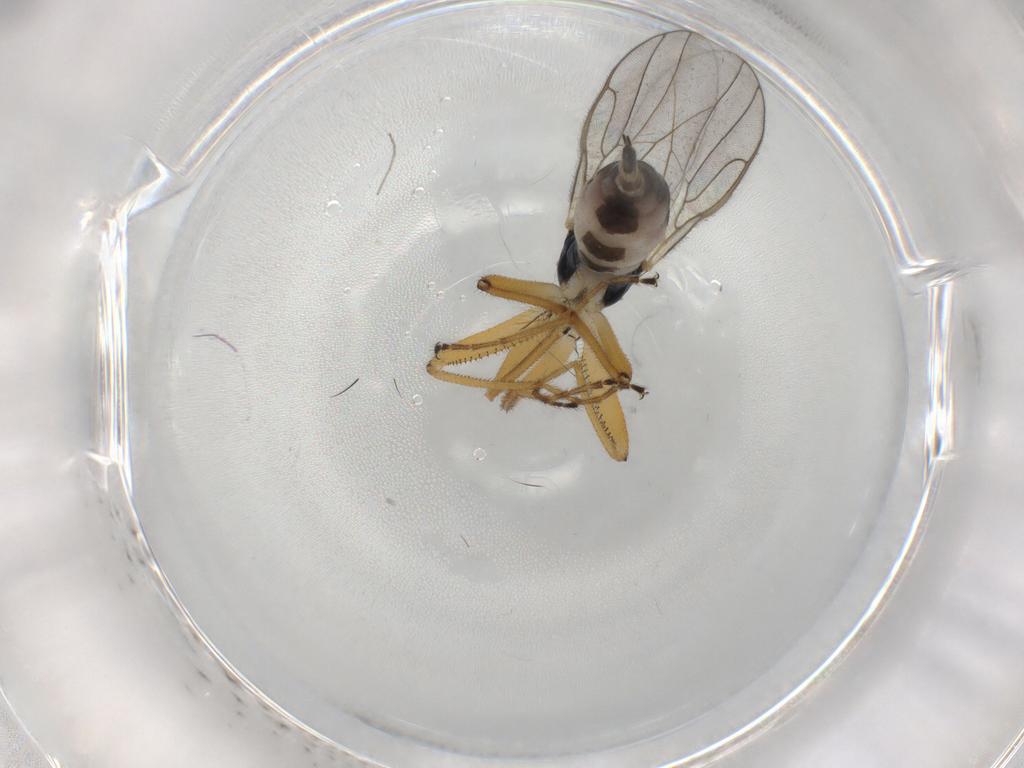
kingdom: Animalia
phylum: Arthropoda
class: Insecta
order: Diptera
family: Hybotidae
